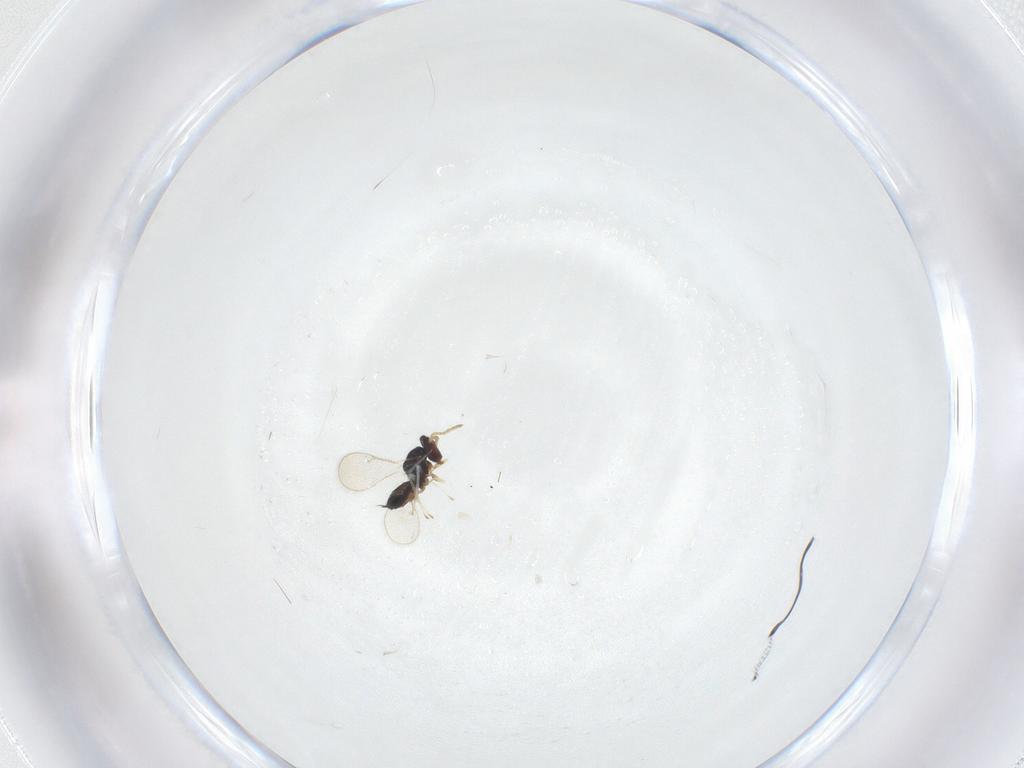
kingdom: Animalia
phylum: Arthropoda
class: Insecta
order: Hymenoptera
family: Eulophidae
